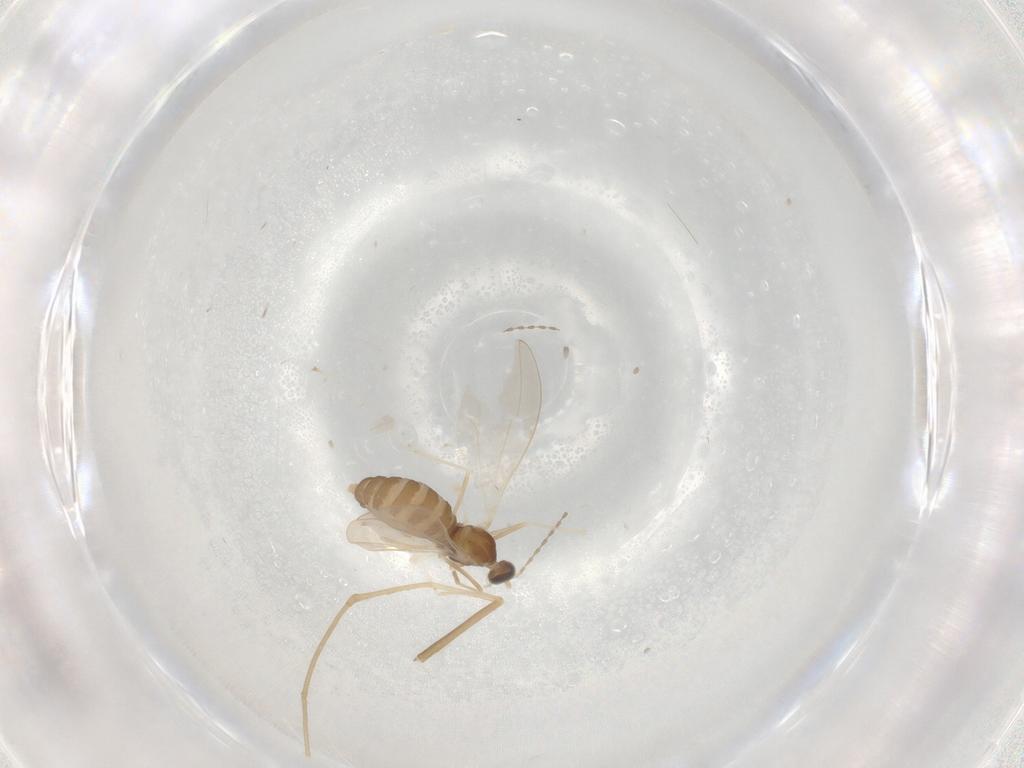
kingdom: Animalia
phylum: Arthropoda
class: Insecta
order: Diptera
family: Cecidomyiidae
